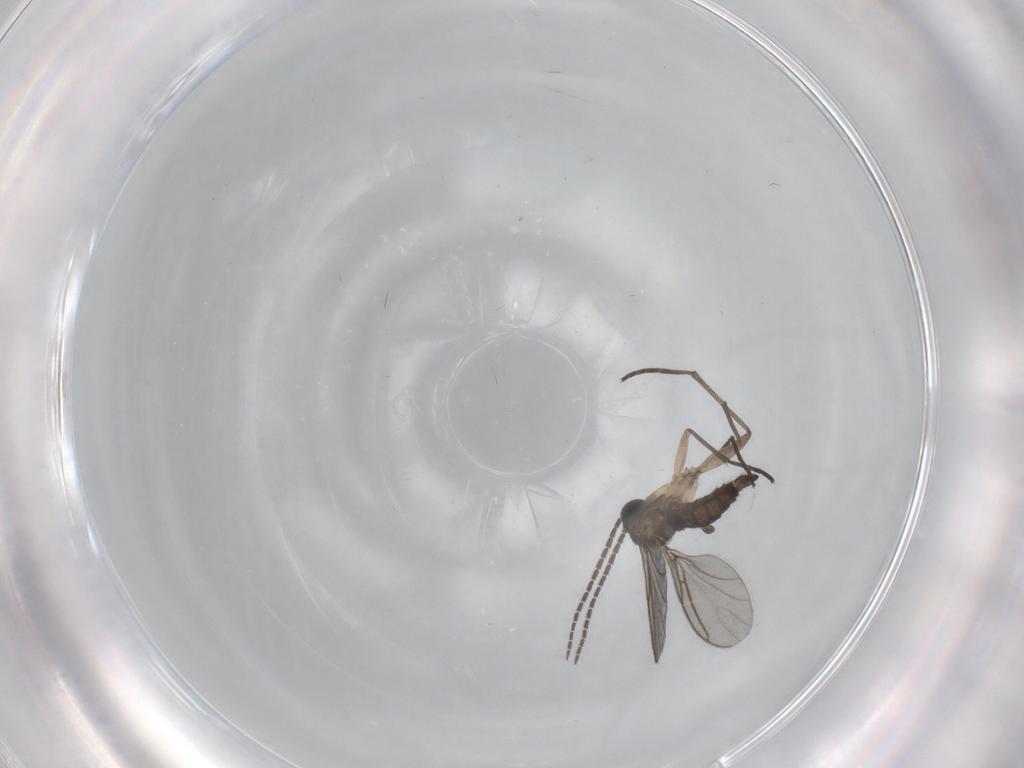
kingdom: Animalia
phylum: Arthropoda
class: Insecta
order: Diptera
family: Sciaridae
